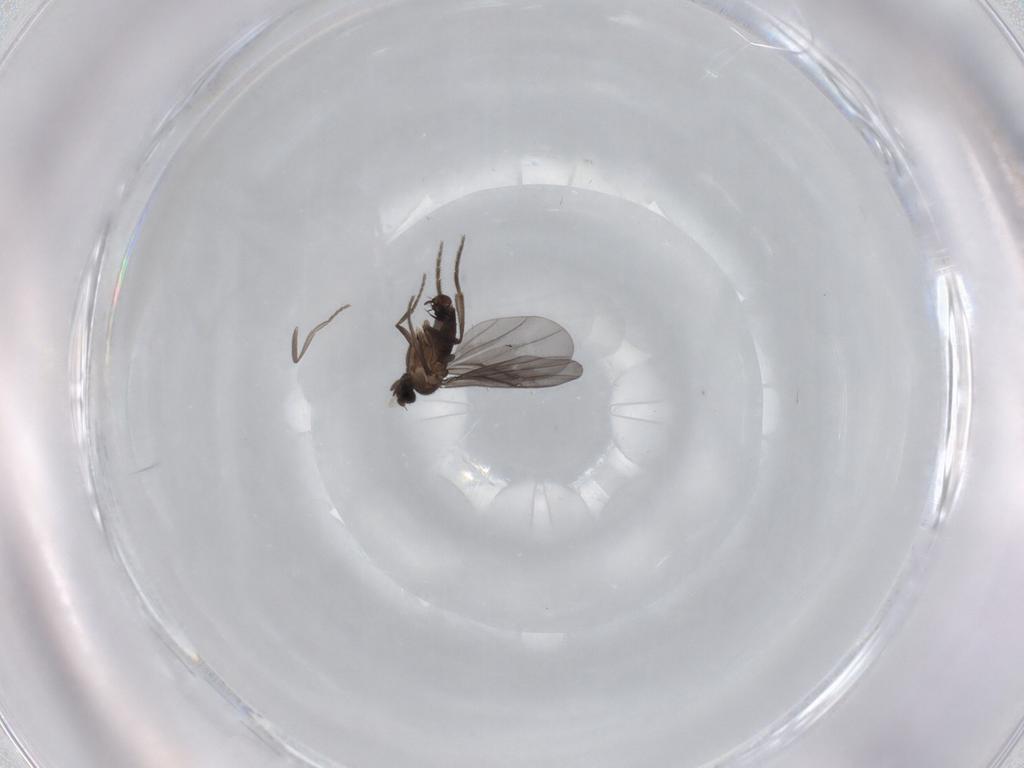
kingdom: Animalia
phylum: Arthropoda
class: Insecta
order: Diptera
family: Phoridae
